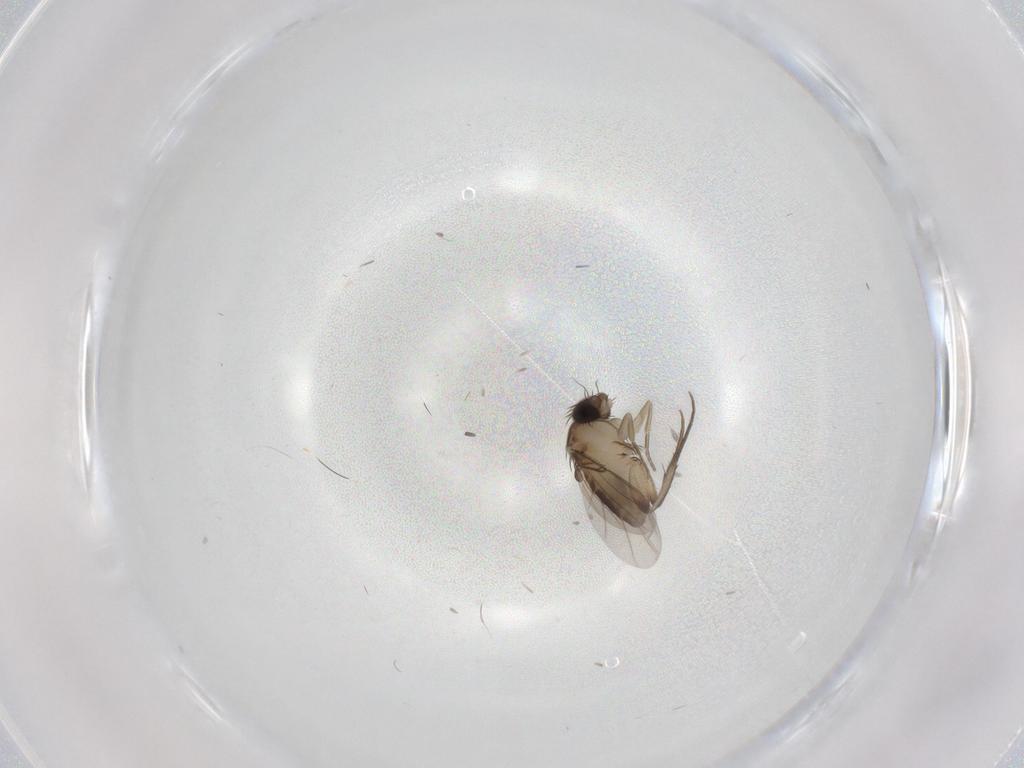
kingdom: Animalia
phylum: Arthropoda
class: Insecta
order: Diptera
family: Phoridae
